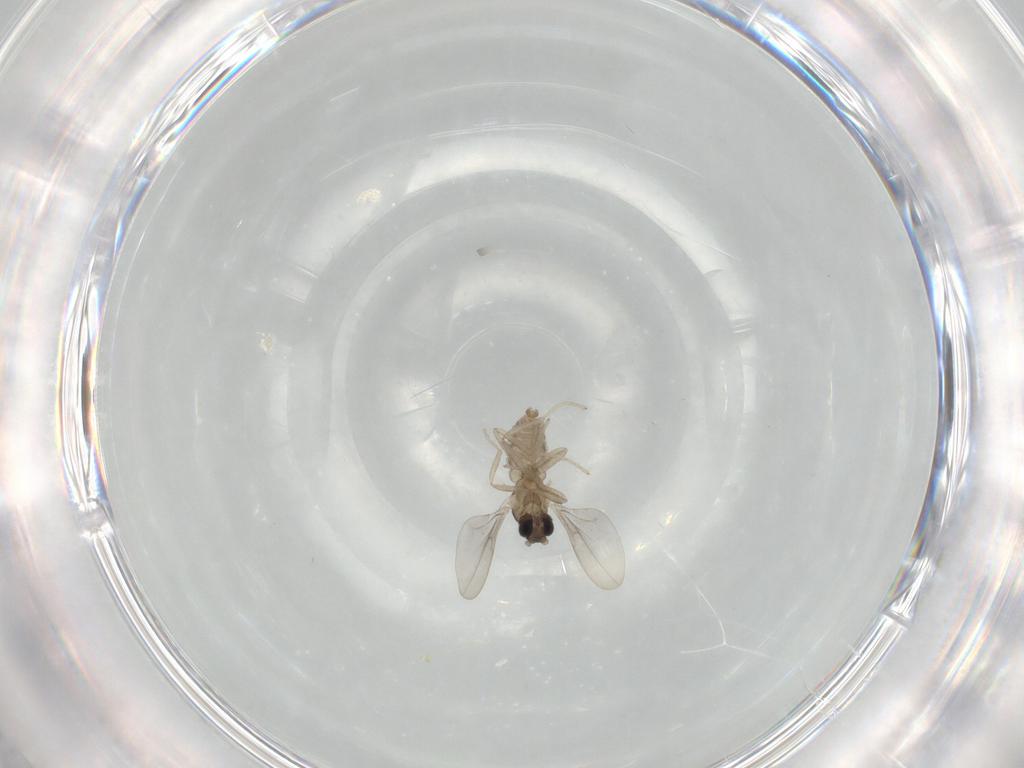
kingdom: Animalia
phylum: Arthropoda
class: Insecta
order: Diptera
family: Cecidomyiidae
